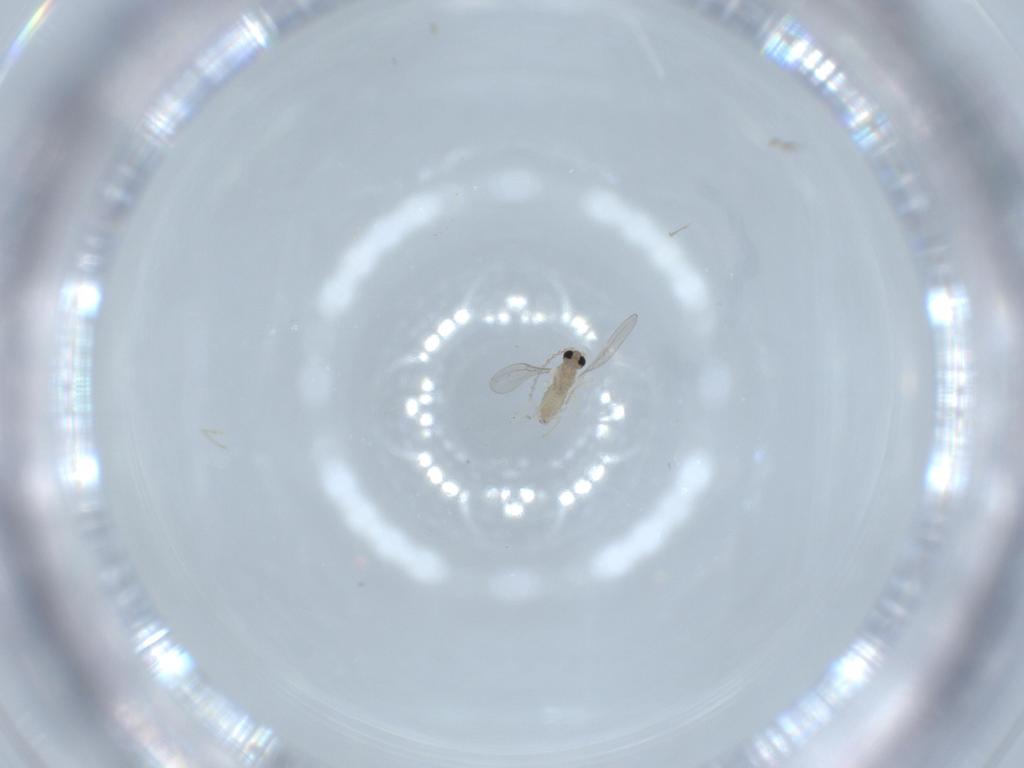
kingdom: Animalia
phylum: Arthropoda
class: Insecta
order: Diptera
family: Cecidomyiidae
